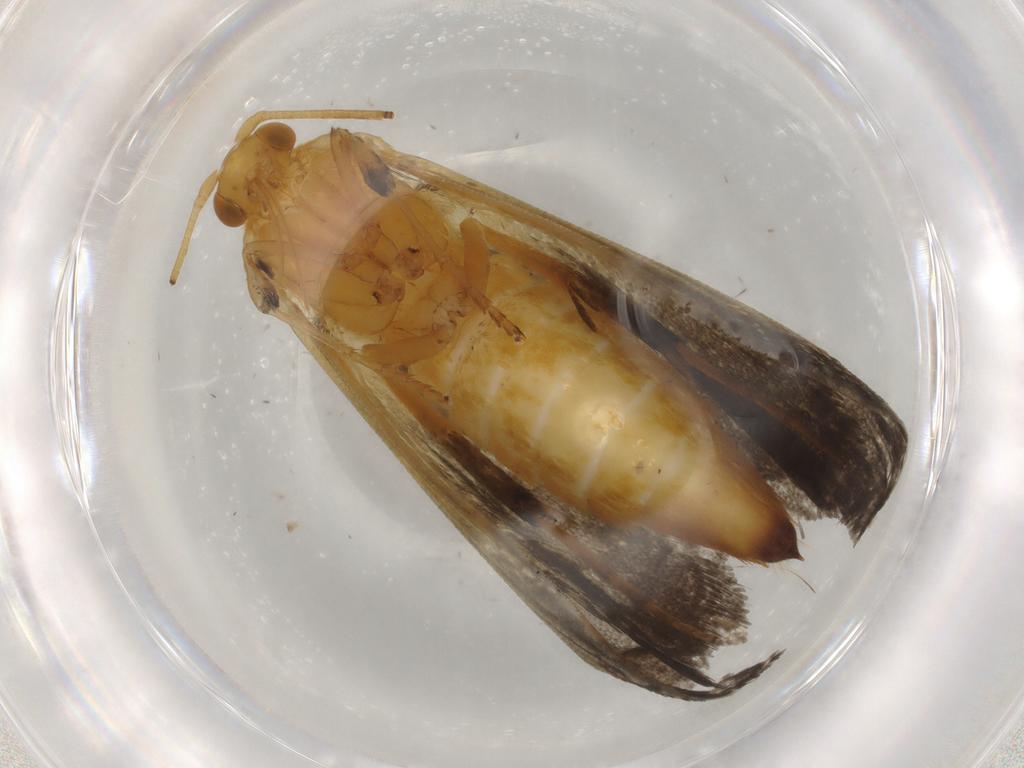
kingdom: Animalia
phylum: Arthropoda
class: Insecta
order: Lepidoptera
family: Adelidae
